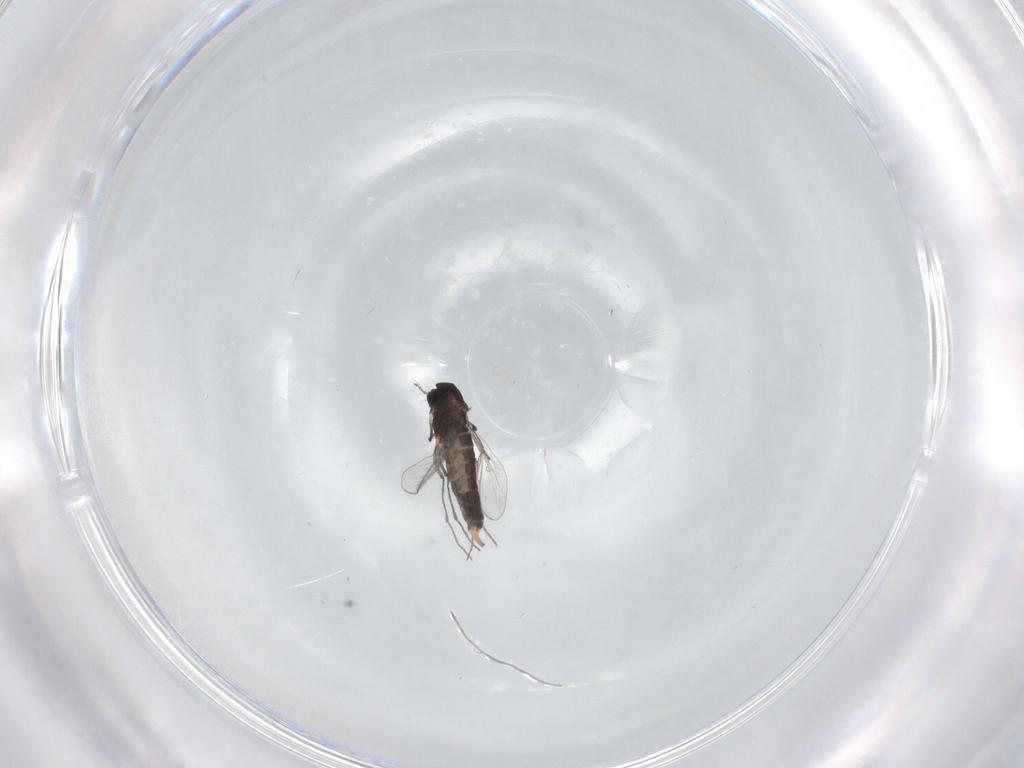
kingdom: Animalia
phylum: Arthropoda
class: Insecta
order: Diptera
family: Chironomidae
